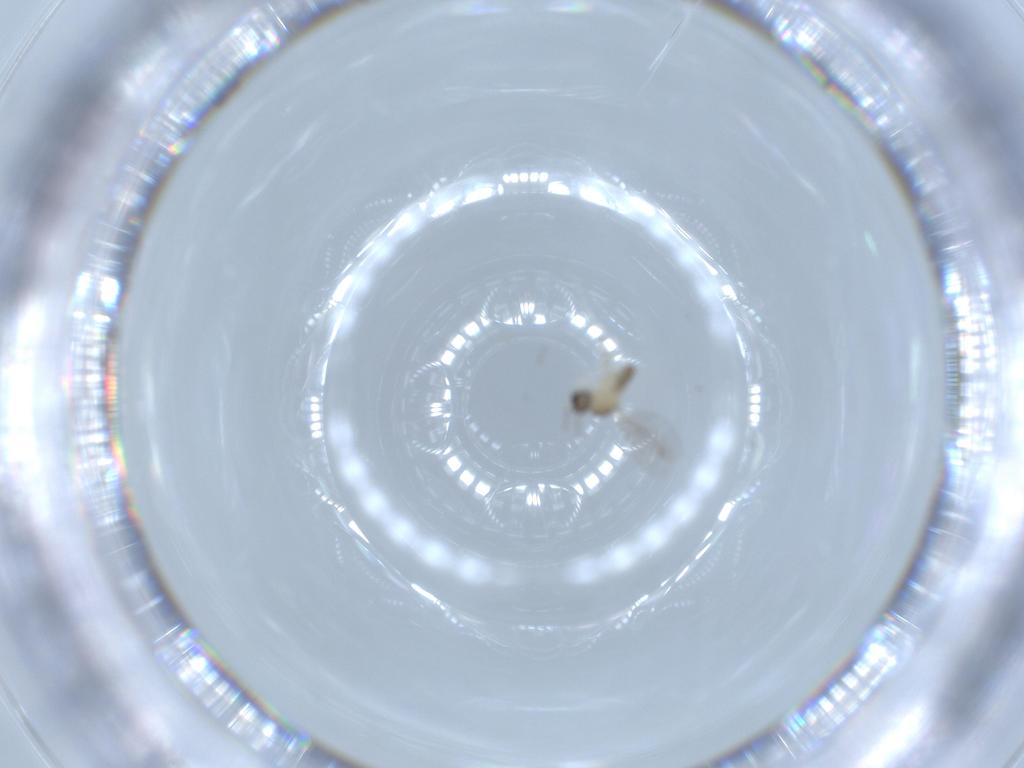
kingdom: Animalia
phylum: Arthropoda
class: Insecta
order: Diptera
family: Cecidomyiidae
